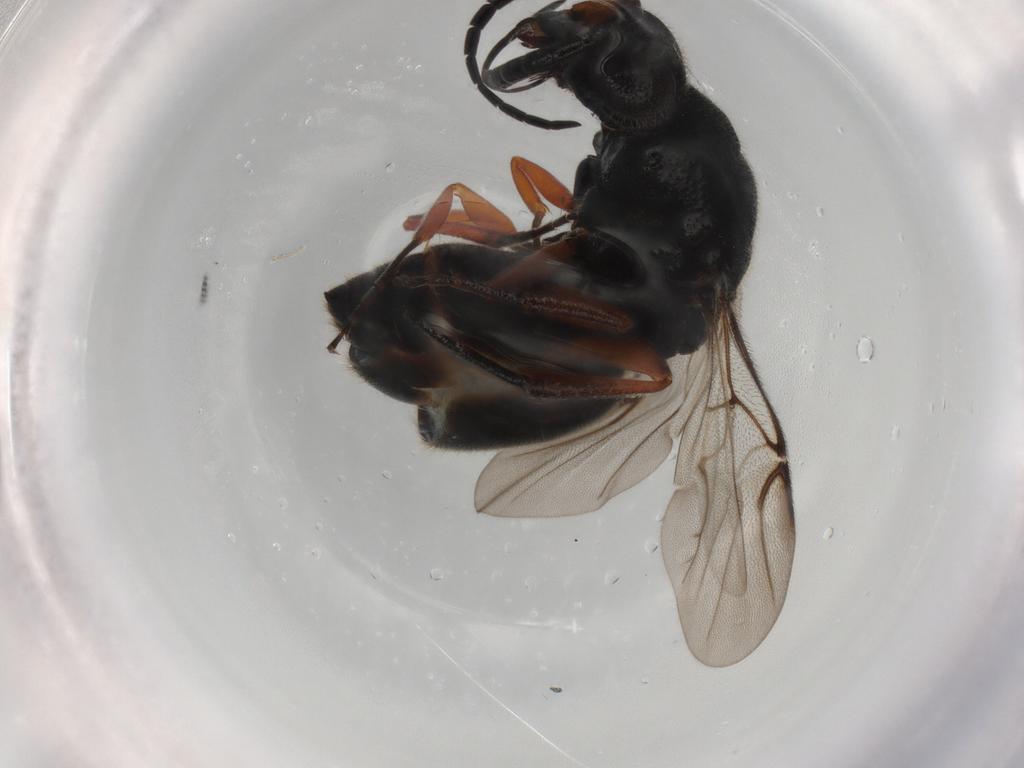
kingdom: Animalia
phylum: Arthropoda
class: Insecta
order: Hymenoptera
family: Chrysididae
